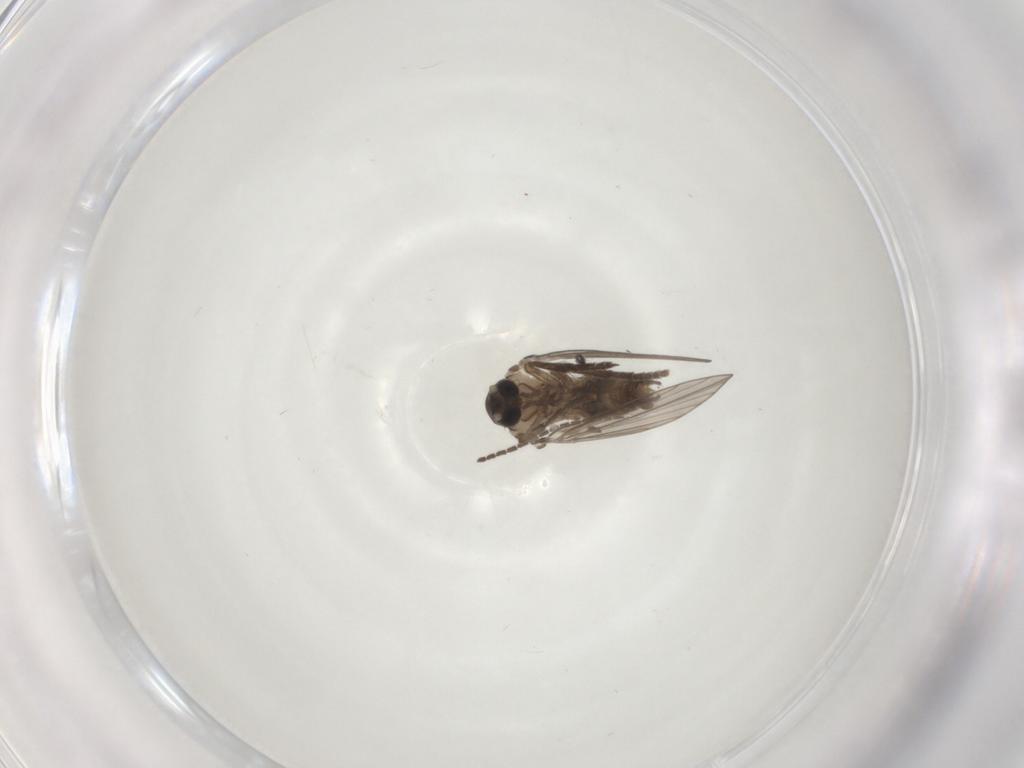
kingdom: Animalia
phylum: Arthropoda
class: Insecta
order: Diptera
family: Psychodidae
